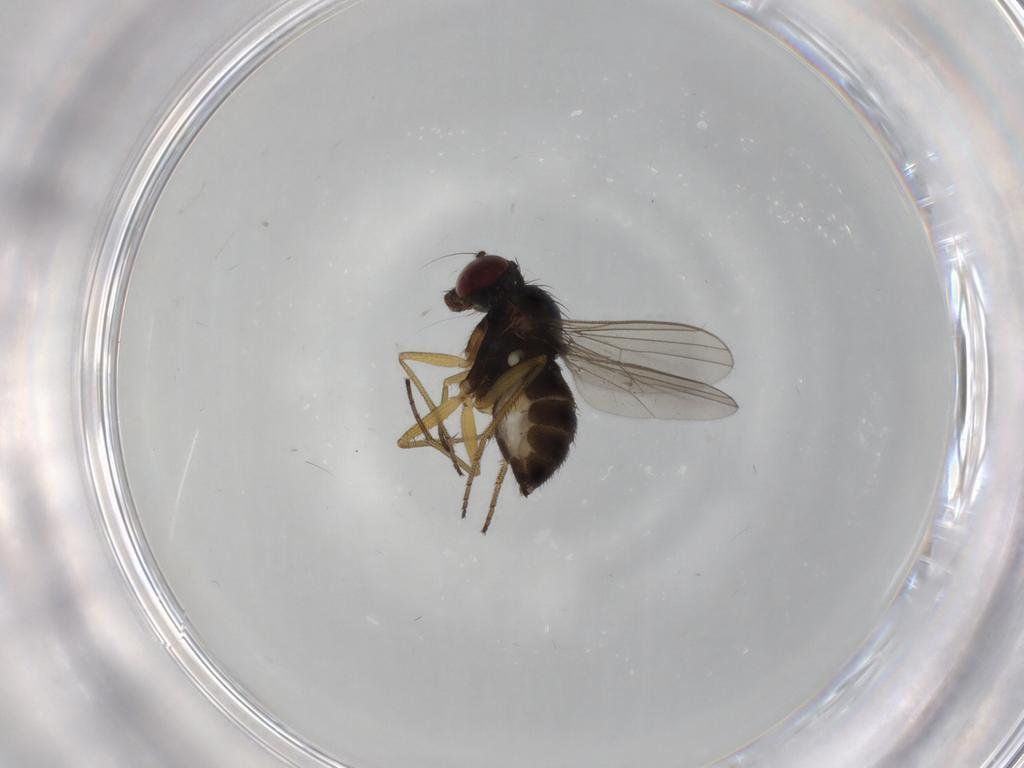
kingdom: Animalia
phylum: Arthropoda
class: Insecta
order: Diptera
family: Dolichopodidae
